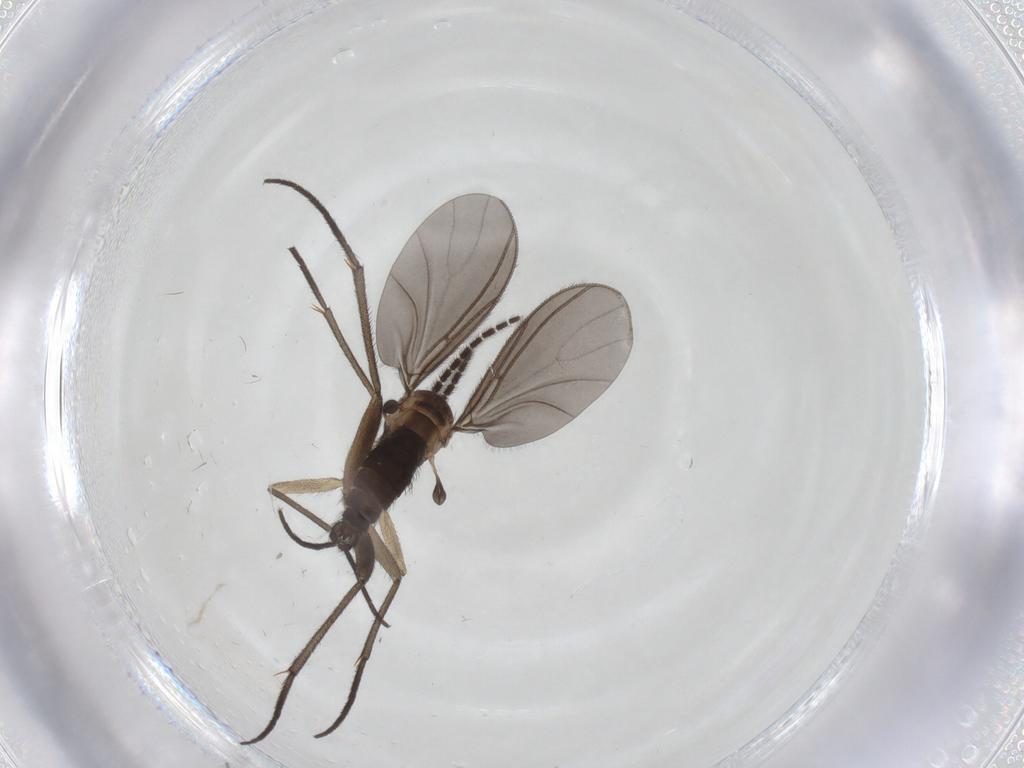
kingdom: Animalia
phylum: Arthropoda
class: Insecta
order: Diptera
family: Sciaridae
